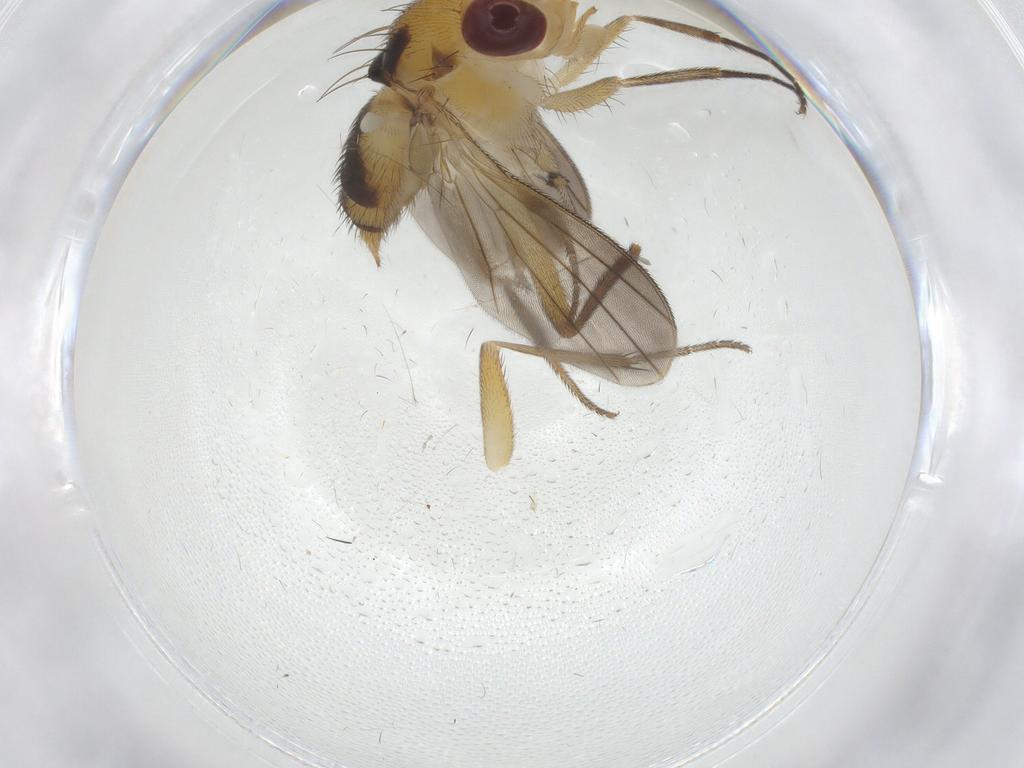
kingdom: Animalia
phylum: Arthropoda
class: Insecta
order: Diptera
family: Clusiidae
